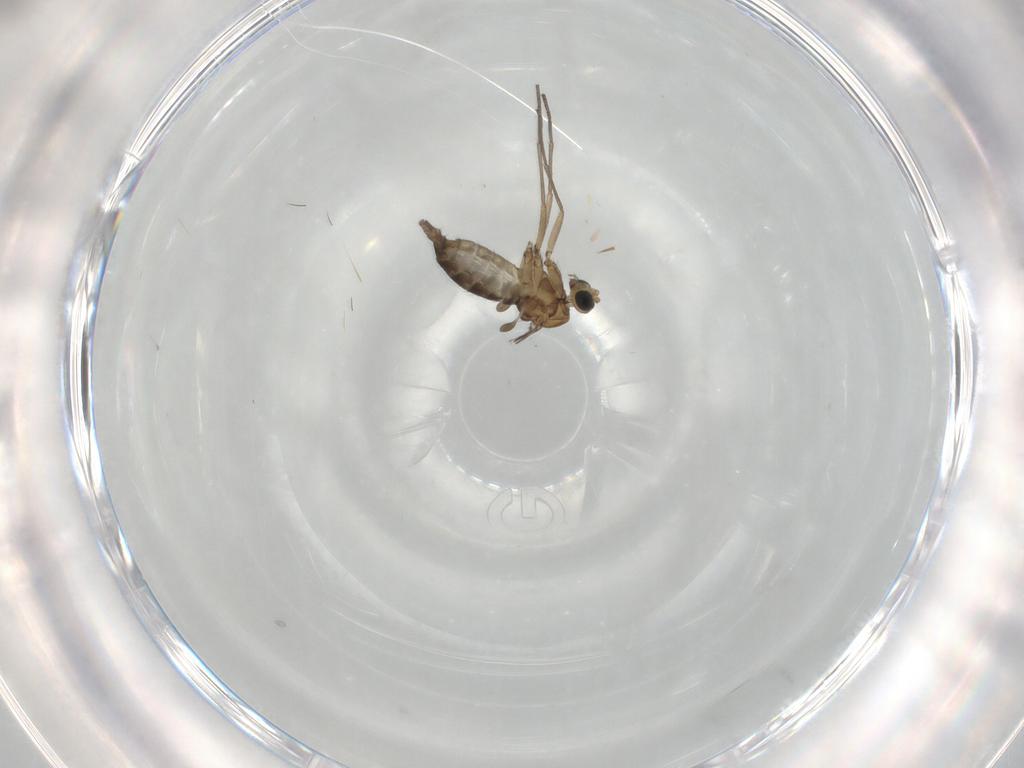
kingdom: Animalia
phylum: Arthropoda
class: Insecta
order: Diptera
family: Sciaridae
